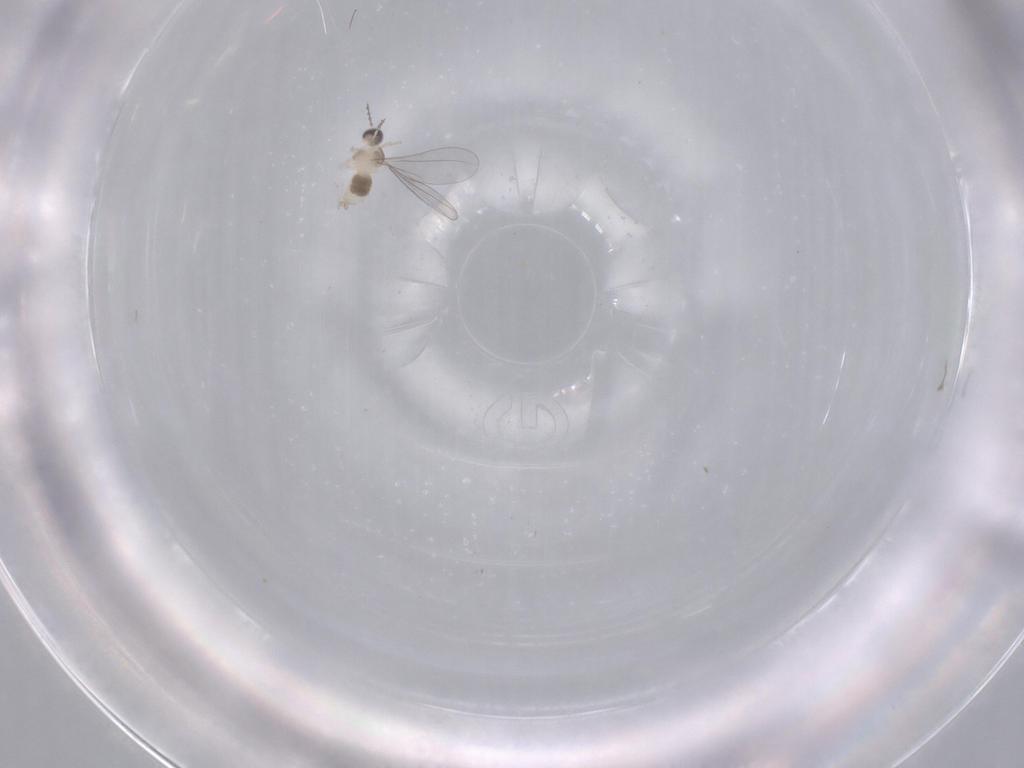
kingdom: Animalia
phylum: Arthropoda
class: Insecta
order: Diptera
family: Cecidomyiidae
